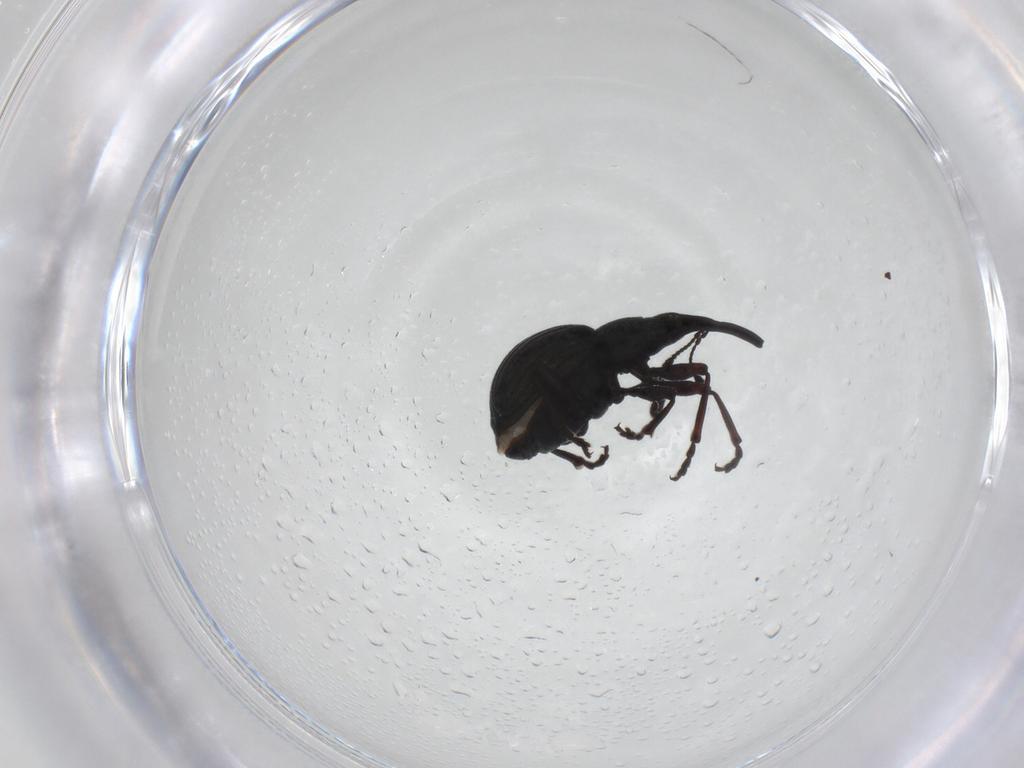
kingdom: Animalia
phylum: Arthropoda
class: Insecta
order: Coleoptera
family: Brentidae
